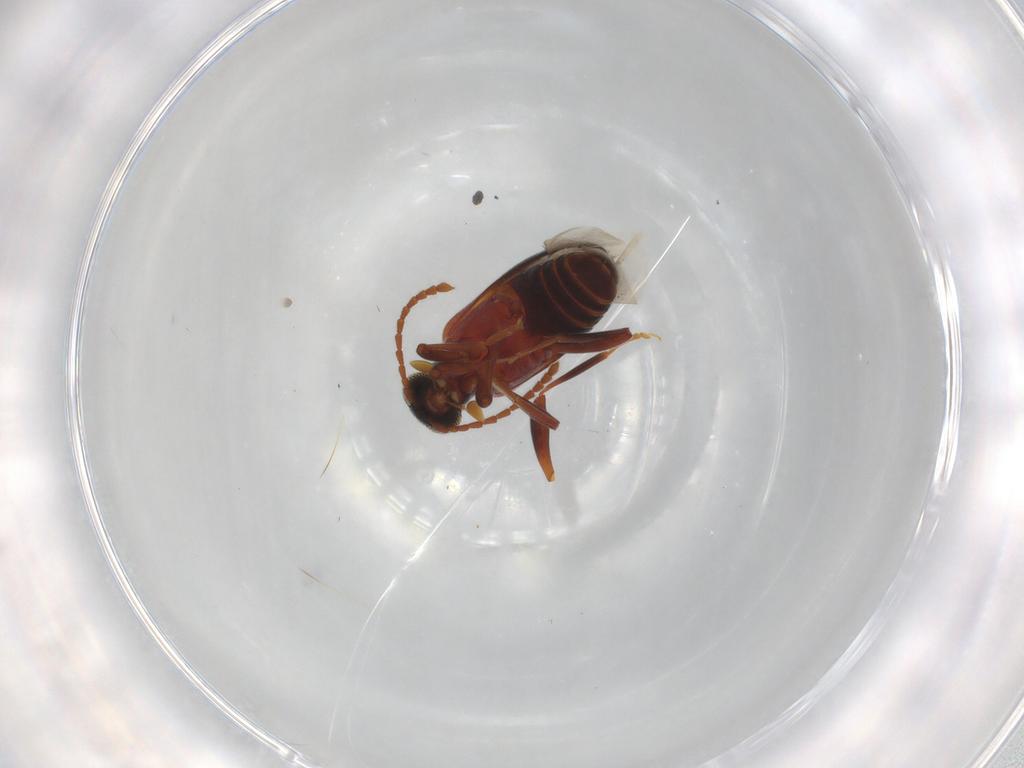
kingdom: Animalia
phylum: Arthropoda
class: Insecta
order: Coleoptera
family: Aderidae
